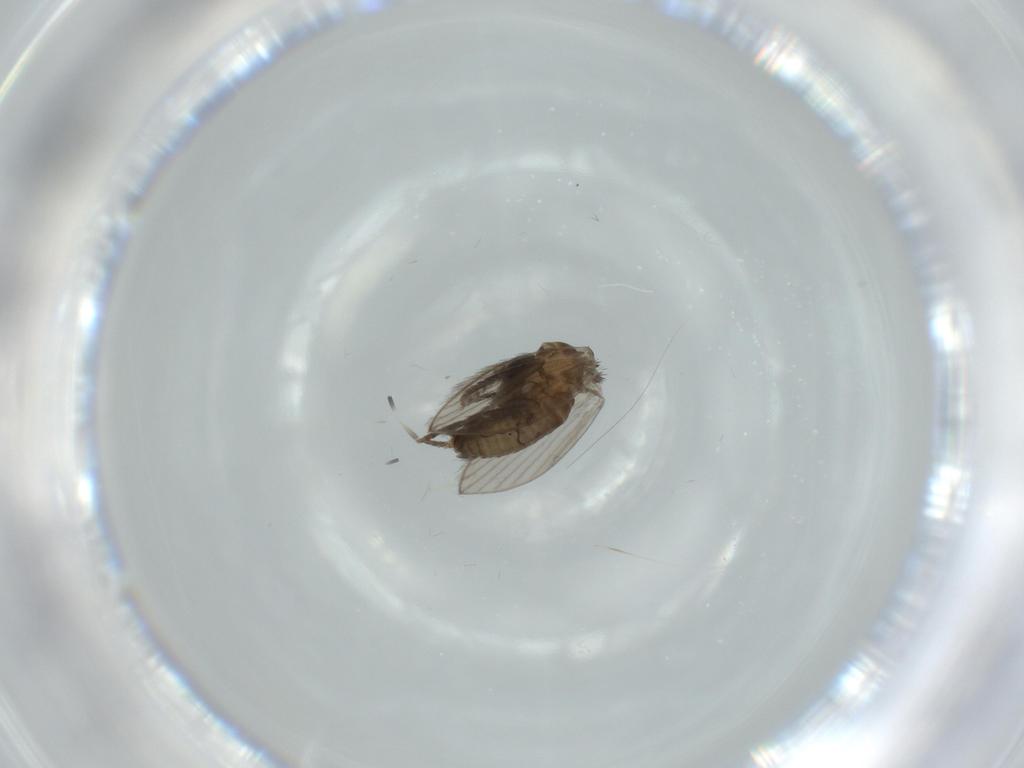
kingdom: Animalia
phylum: Arthropoda
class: Insecta
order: Diptera
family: Psychodidae
